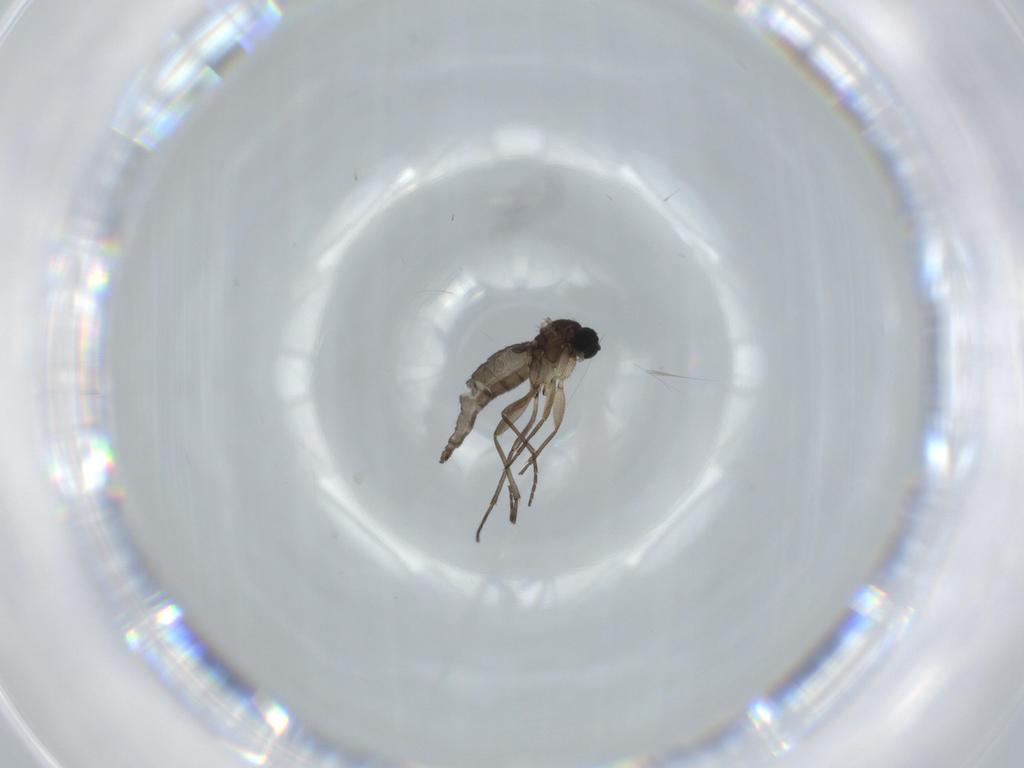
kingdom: Animalia
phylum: Arthropoda
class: Insecta
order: Diptera
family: Sciaridae
